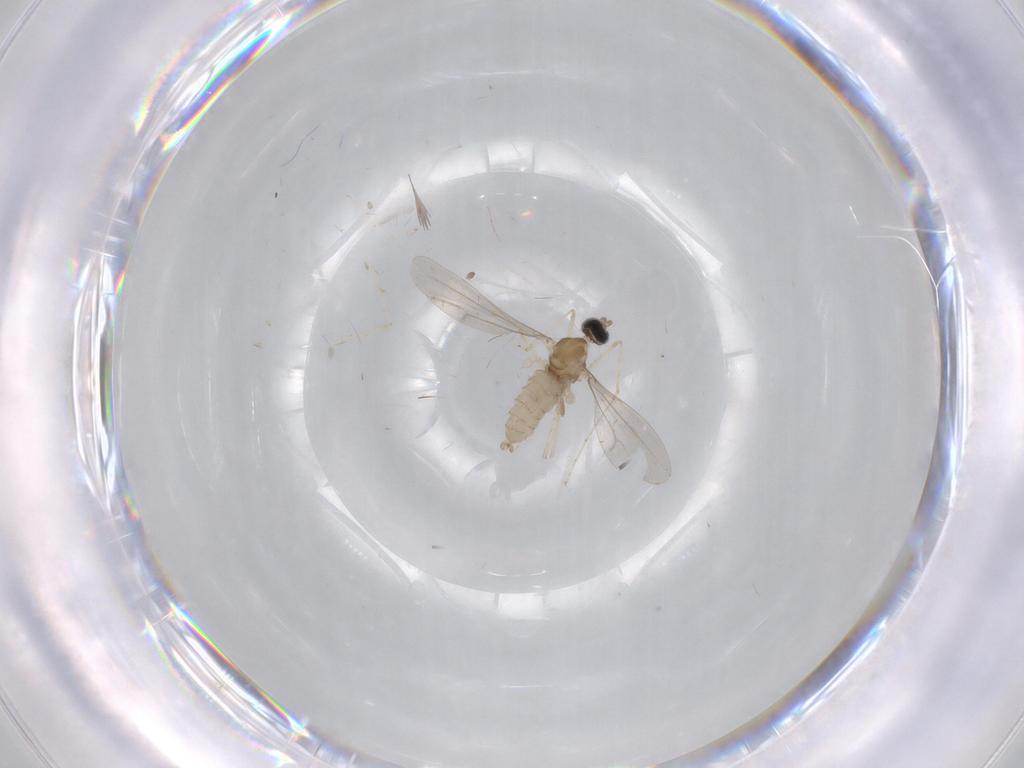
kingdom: Animalia
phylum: Arthropoda
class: Insecta
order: Diptera
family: Cecidomyiidae
